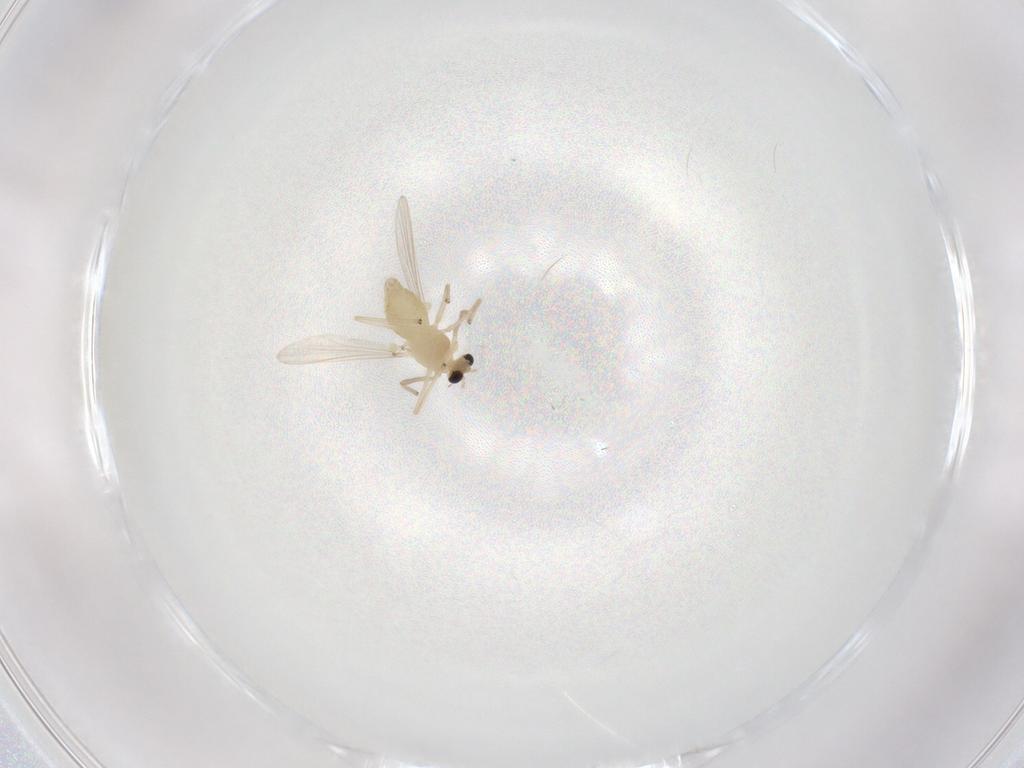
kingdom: Animalia
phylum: Arthropoda
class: Insecta
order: Diptera
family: Chironomidae
